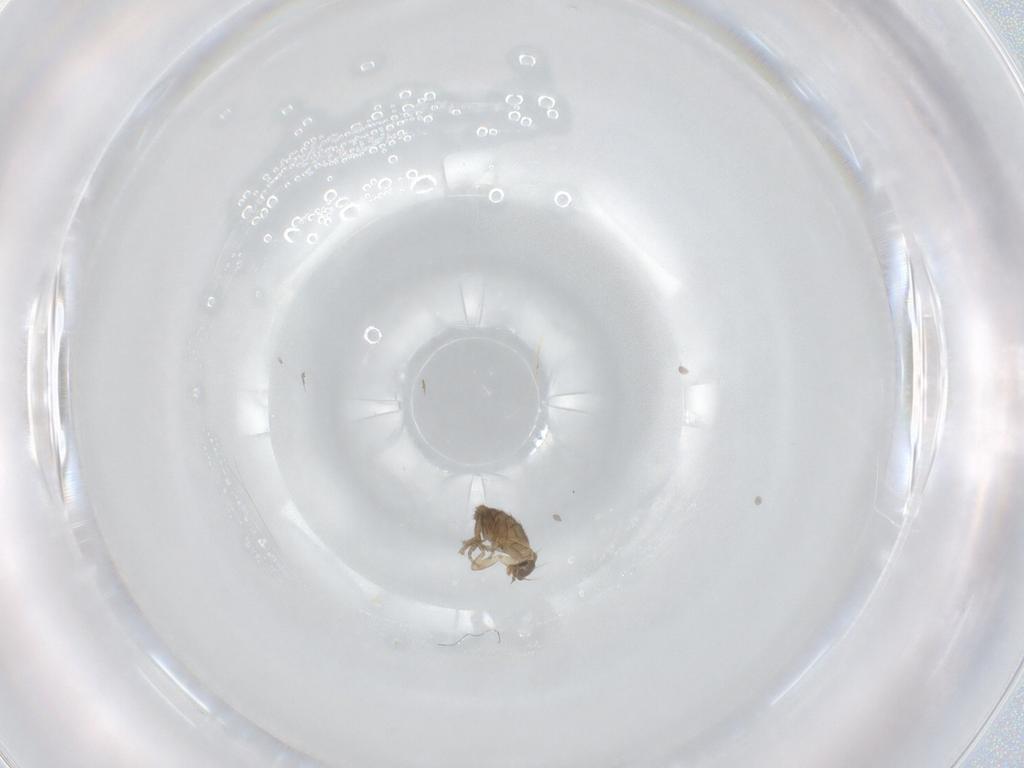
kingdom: Animalia
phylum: Arthropoda
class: Insecta
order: Diptera
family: Phoridae
